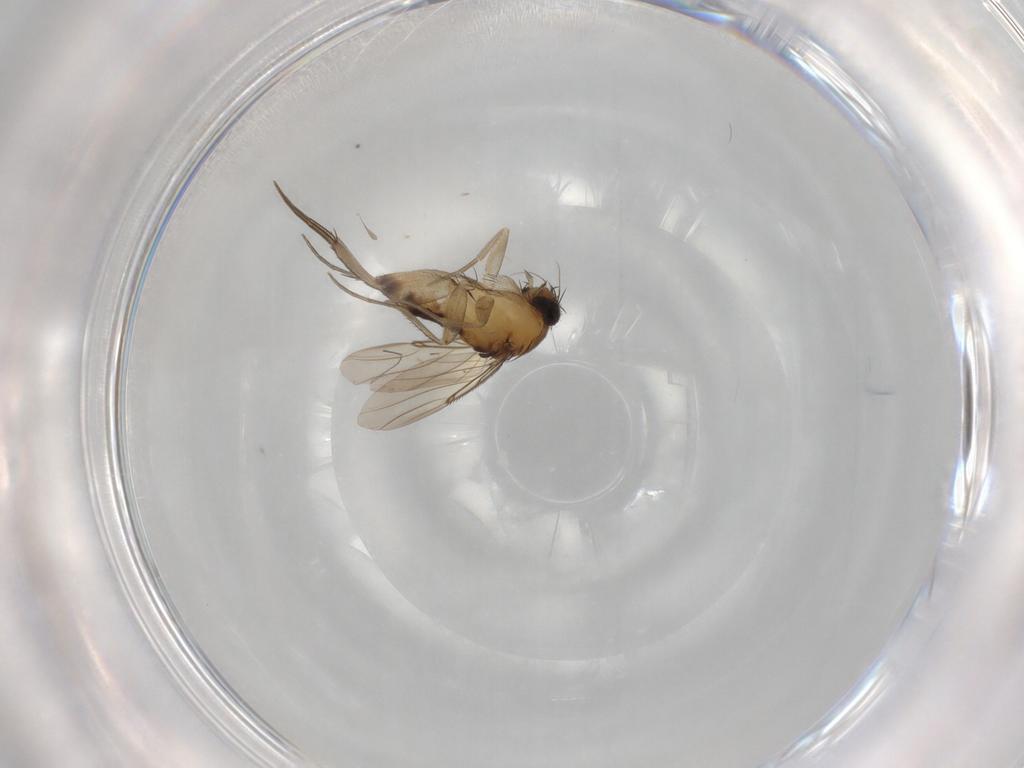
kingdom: Animalia
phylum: Arthropoda
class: Insecta
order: Diptera
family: Phoridae
